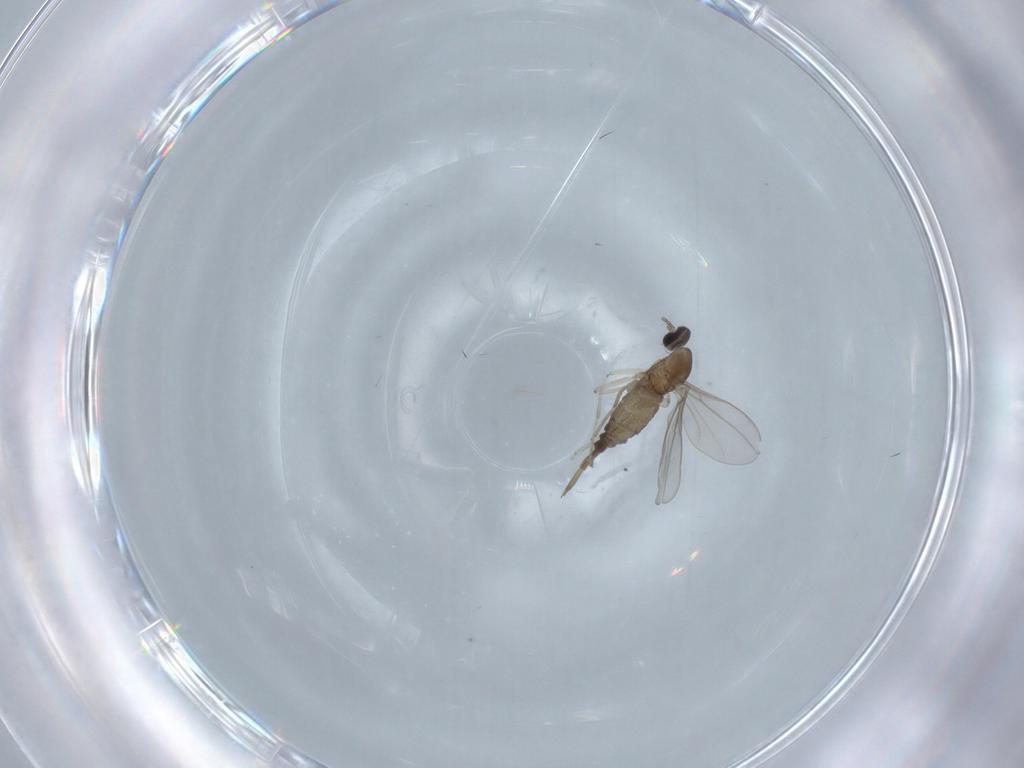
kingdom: Animalia
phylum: Arthropoda
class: Insecta
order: Diptera
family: Cecidomyiidae
